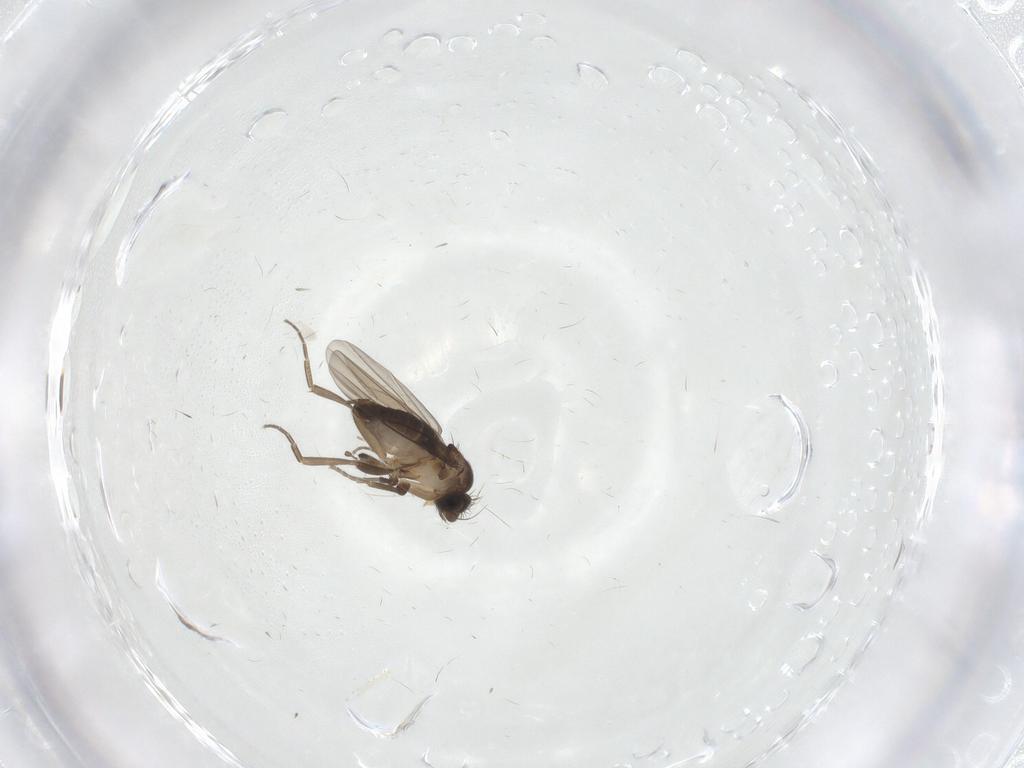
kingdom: Animalia
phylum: Arthropoda
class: Insecta
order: Diptera
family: Phoridae
